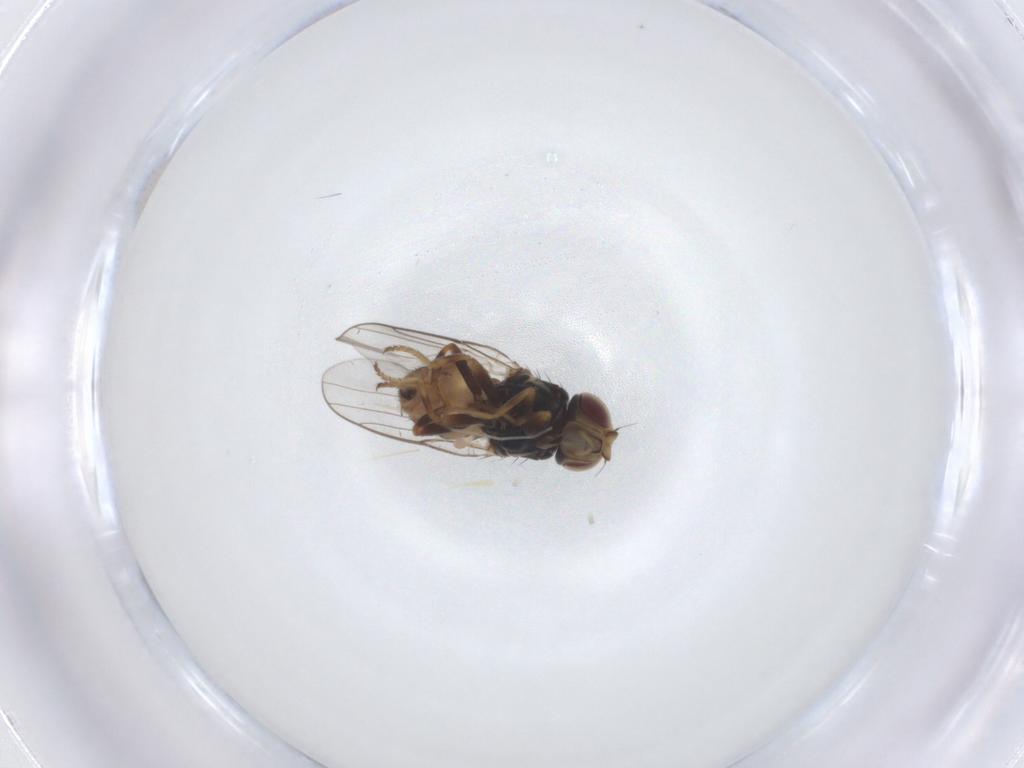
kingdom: Animalia
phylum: Arthropoda
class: Insecta
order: Diptera
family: Chloropidae
